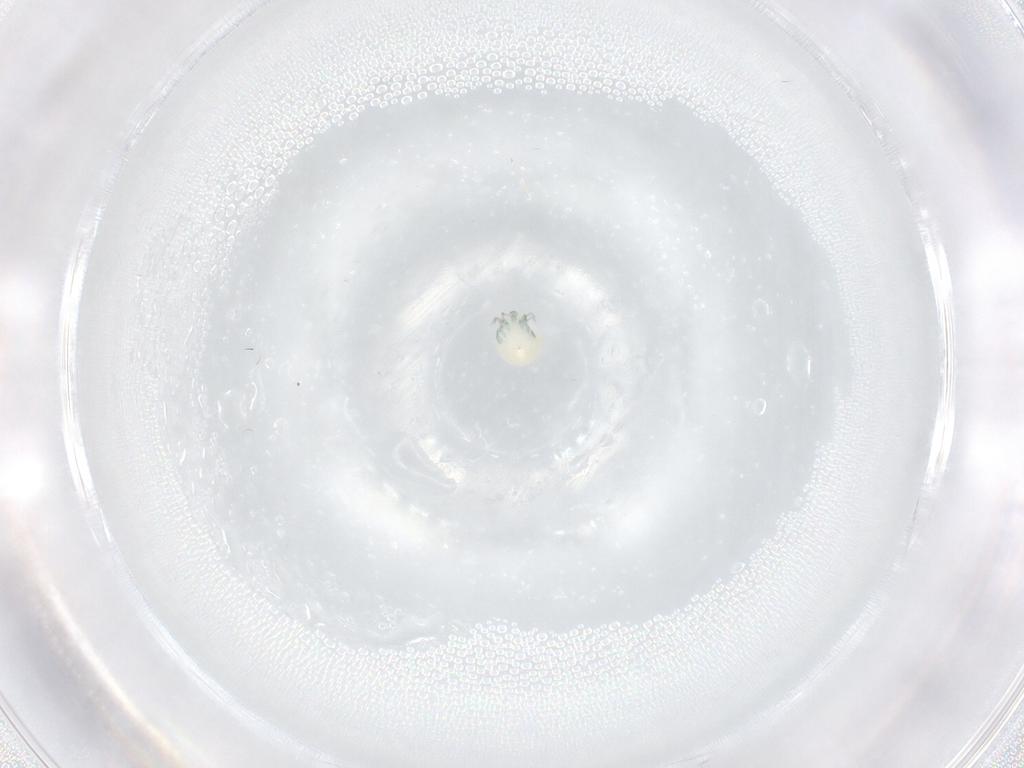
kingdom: Animalia
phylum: Arthropoda
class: Arachnida
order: Trombidiformes
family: Arrenuridae
